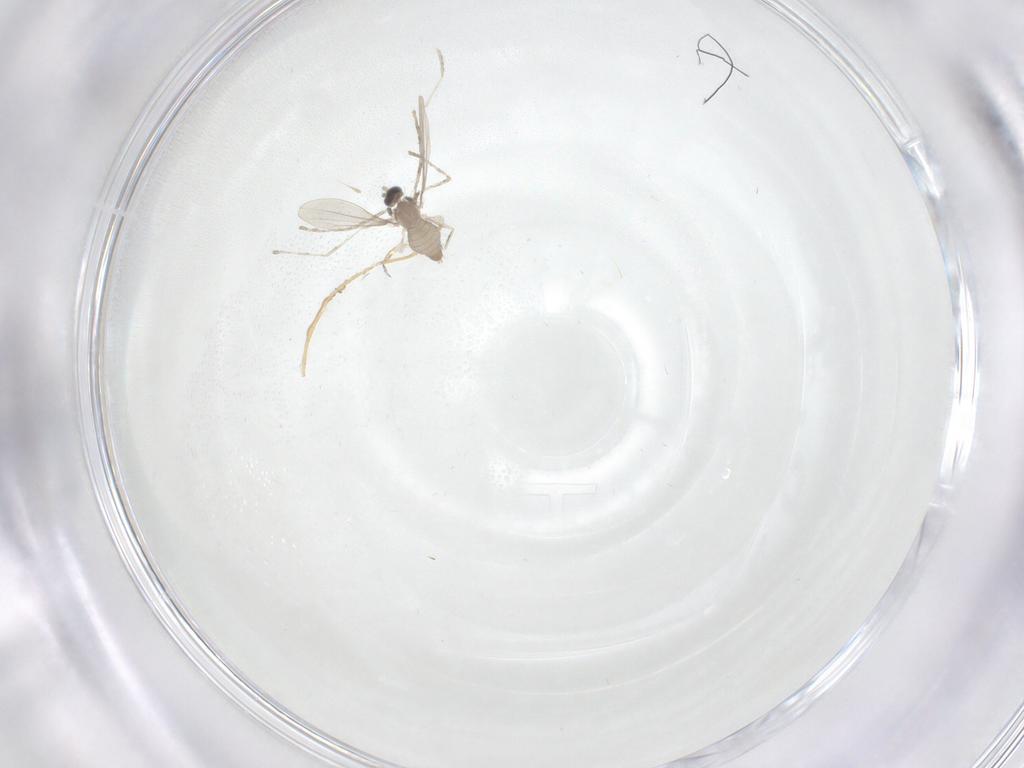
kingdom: Animalia
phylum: Arthropoda
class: Insecta
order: Diptera
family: Cecidomyiidae
